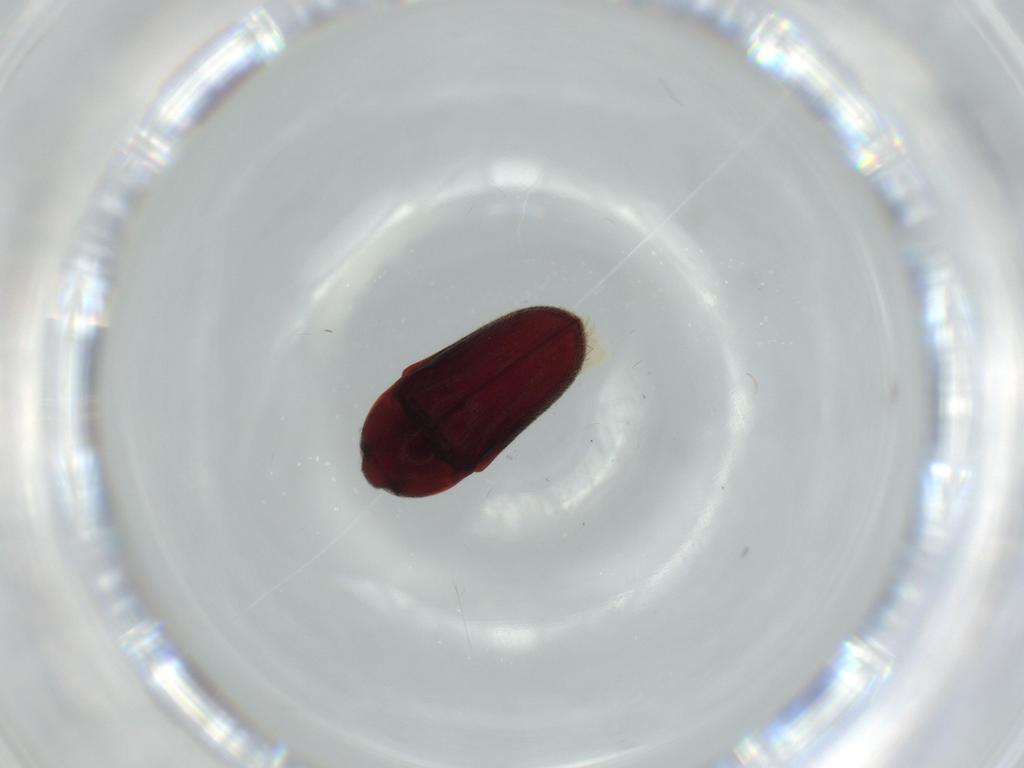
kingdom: Animalia
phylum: Arthropoda
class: Insecta
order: Coleoptera
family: Throscidae
